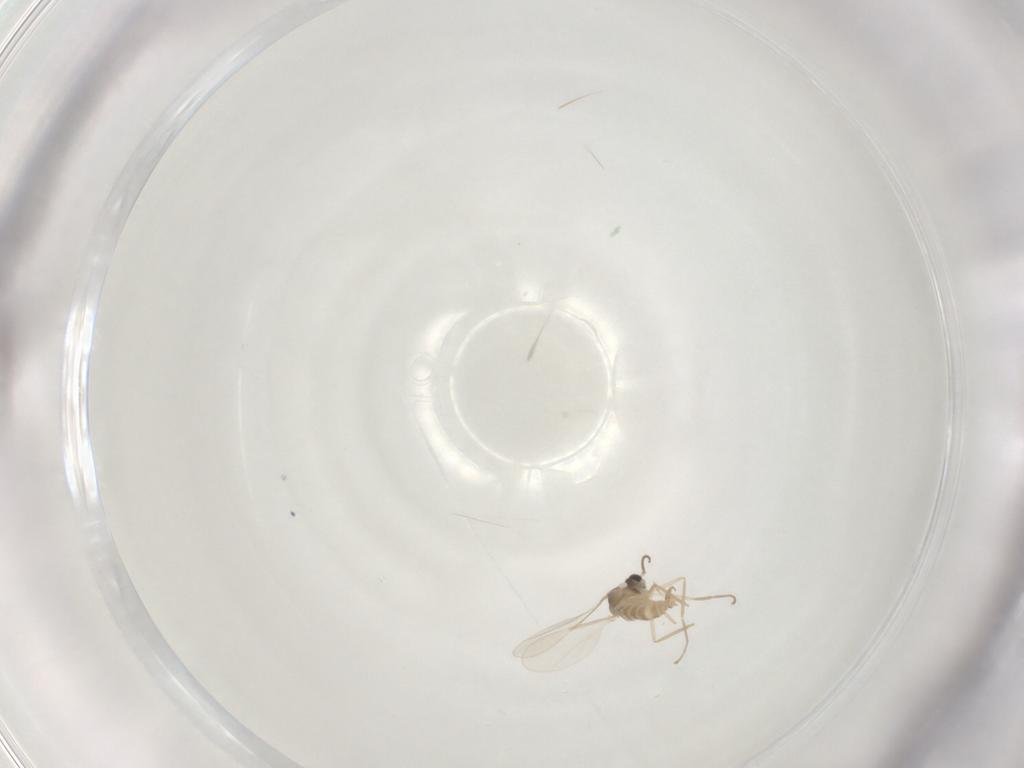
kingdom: Animalia
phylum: Arthropoda
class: Insecta
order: Diptera
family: Cecidomyiidae
